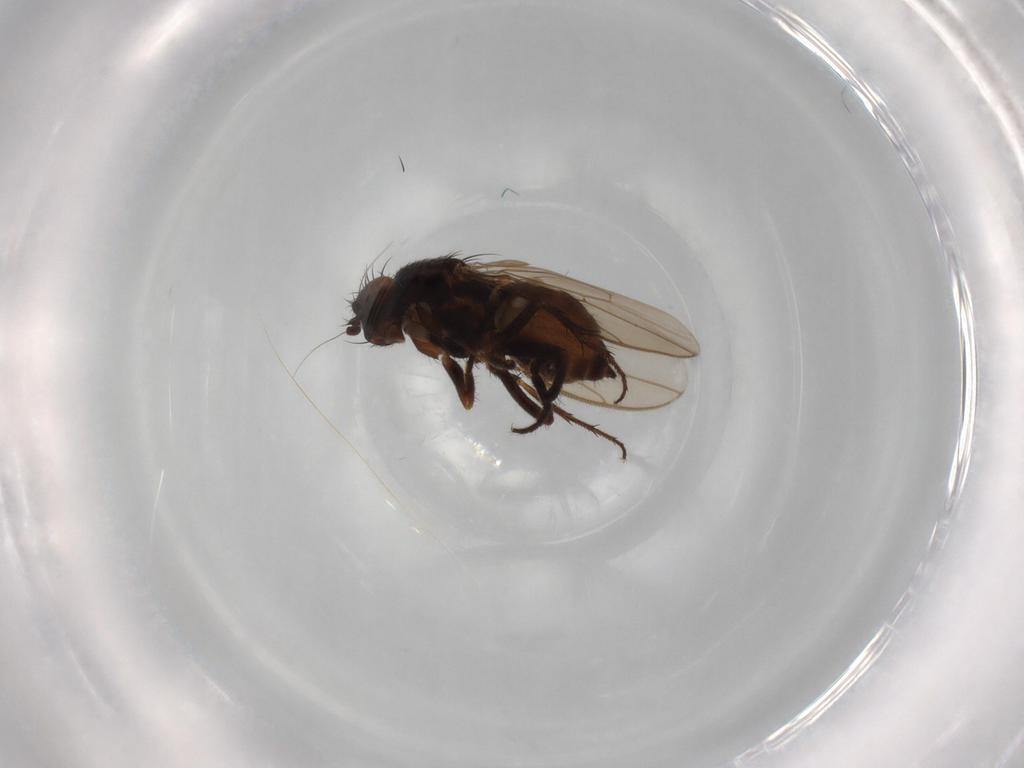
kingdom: Animalia
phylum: Arthropoda
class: Insecta
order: Diptera
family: Sphaeroceridae
